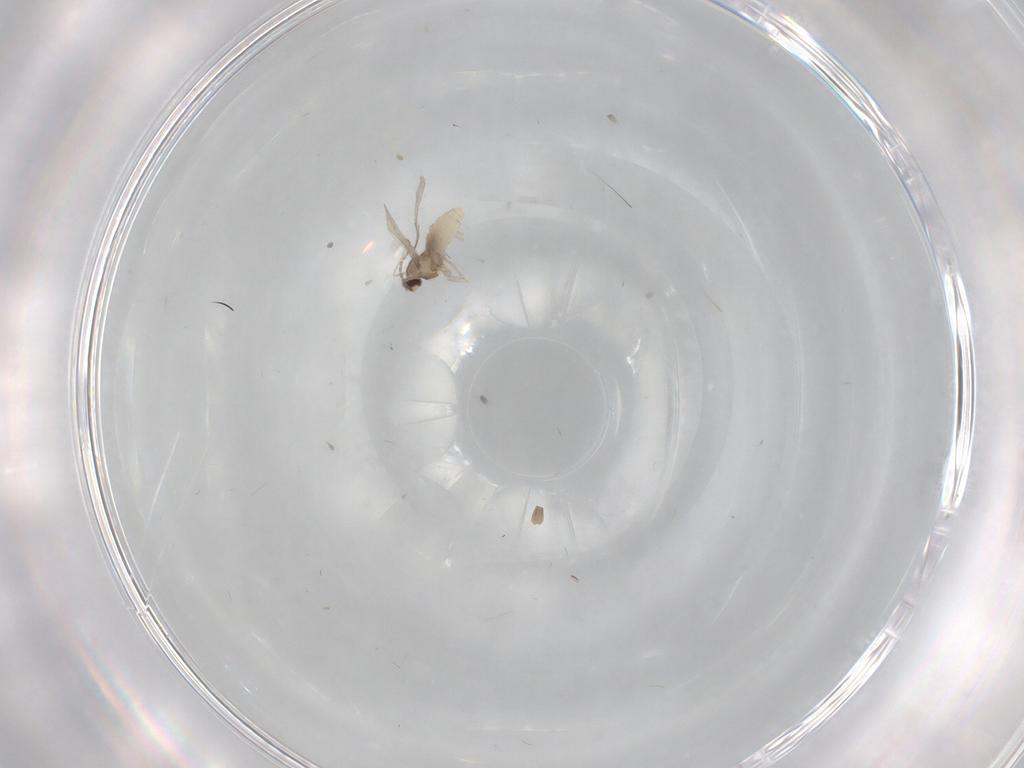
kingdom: Animalia
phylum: Arthropoda
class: Insecta
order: Diptera
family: Cecidomyiidae
